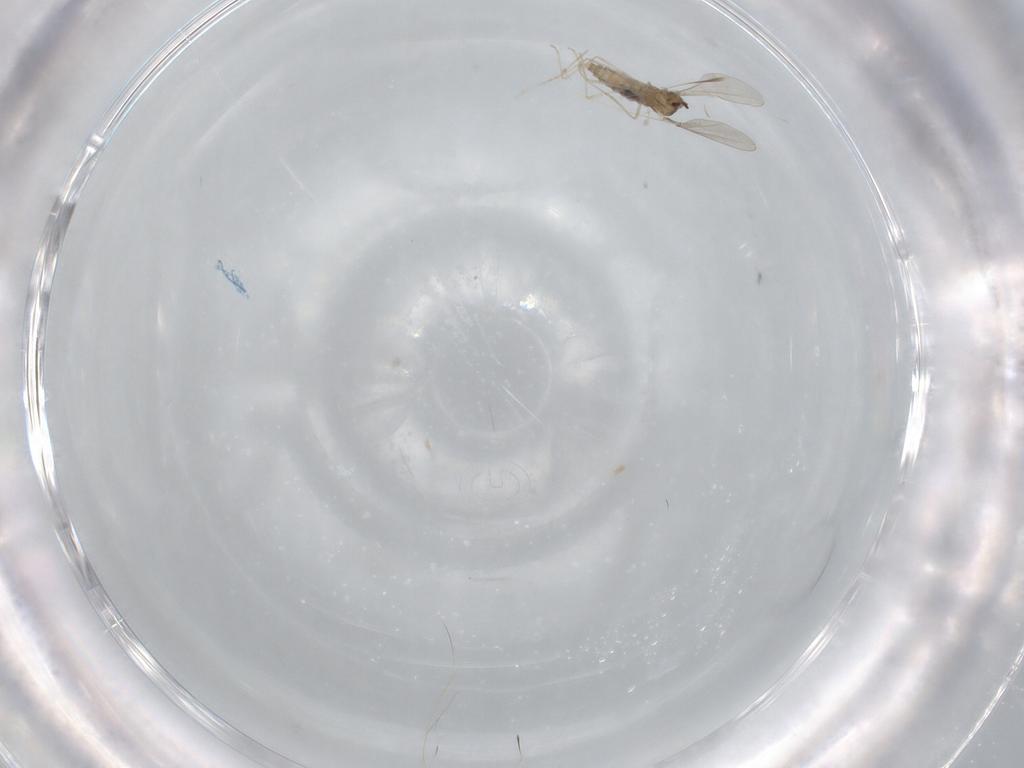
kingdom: Animalia
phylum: Arthropoda
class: Insecta
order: Diptera
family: Cecidomyiidae
